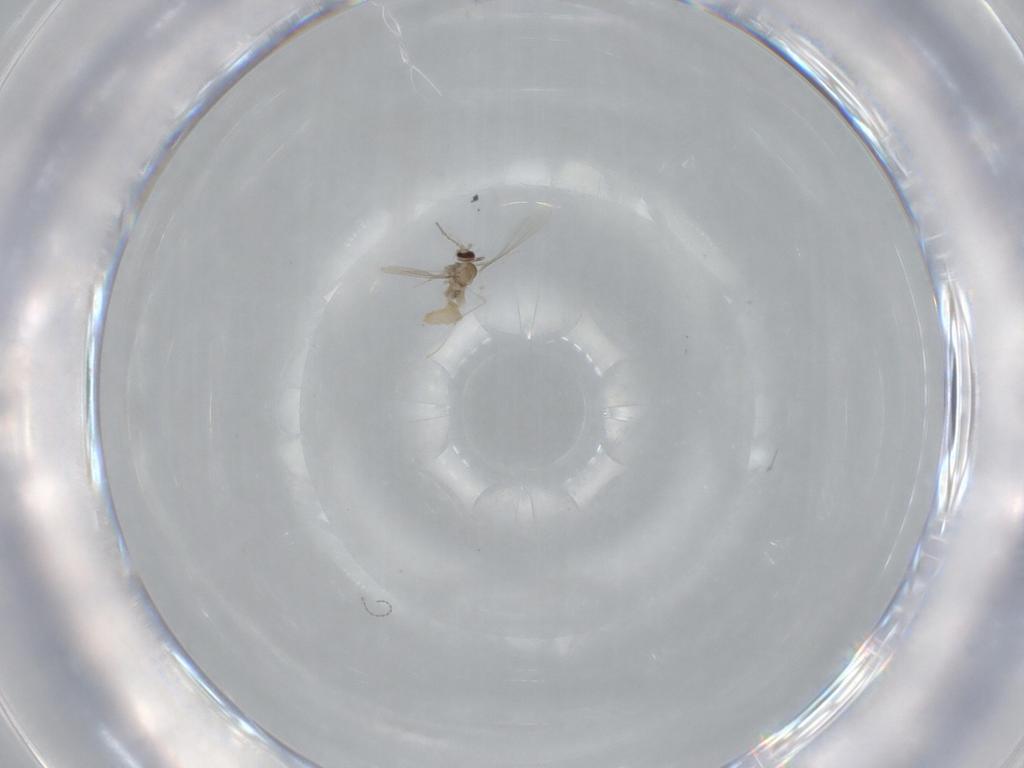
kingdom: Animalia
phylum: Arthropoda
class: Insecta
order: Diptera
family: Cecidomyiidae
